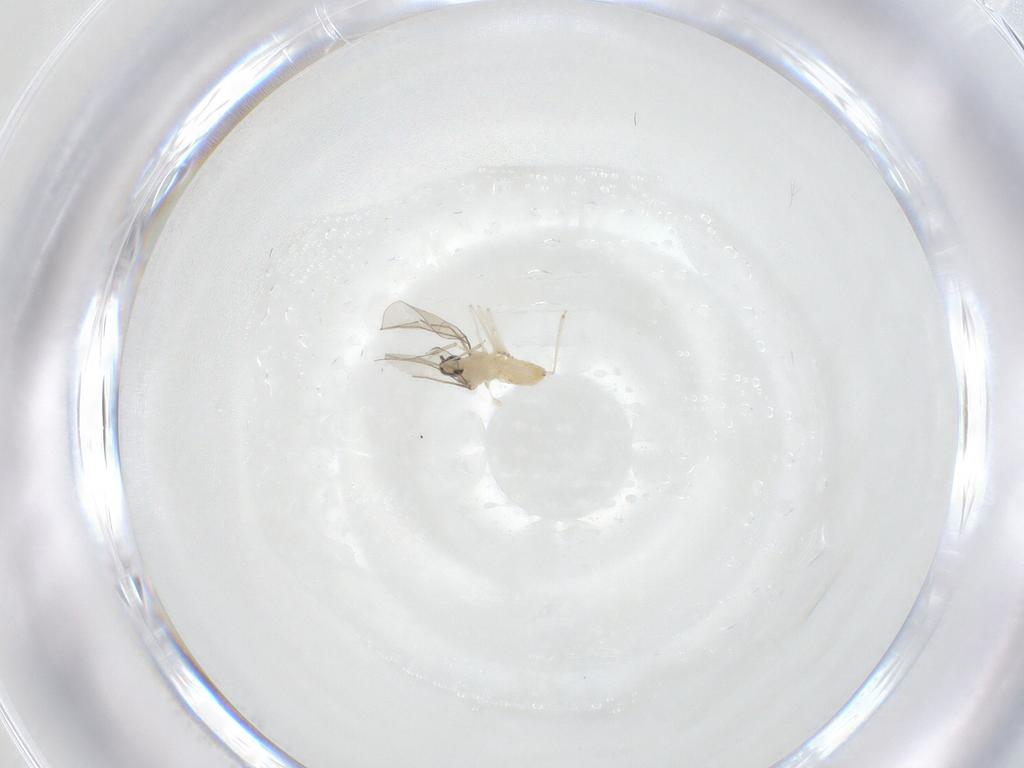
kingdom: Animalia
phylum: Arthropoda
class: Insecta
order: Diptera
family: Cecidomyiidae
